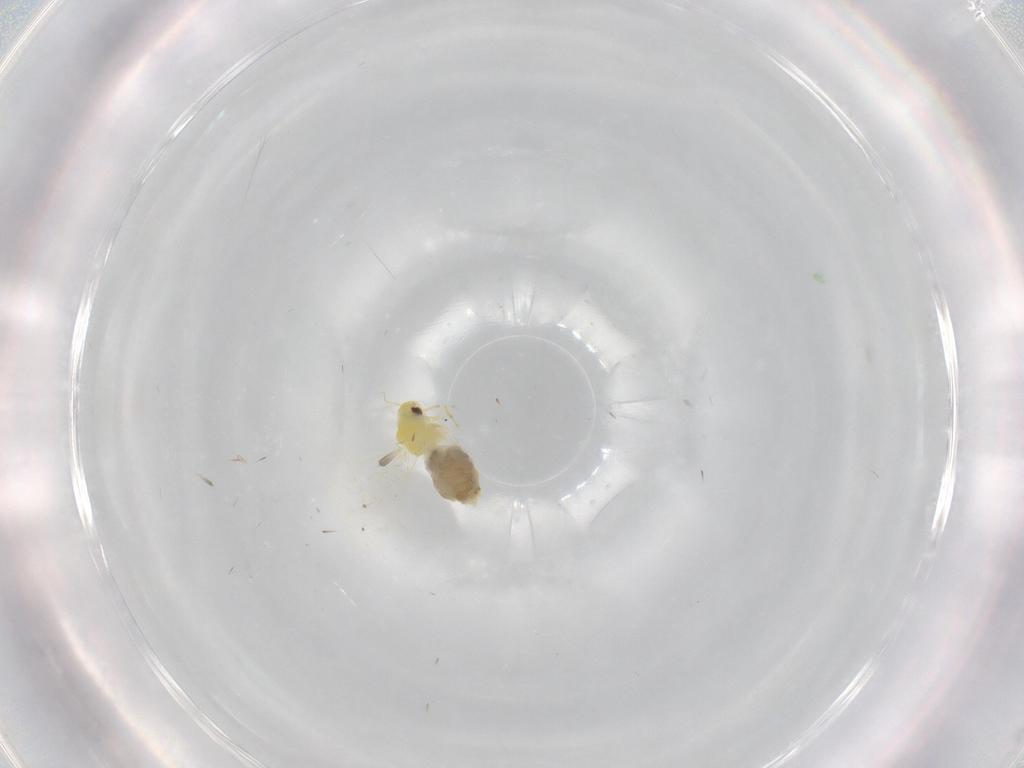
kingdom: Animalia
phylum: Arthropoda
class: Insecta
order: Hemiptera
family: Aleyrodidae
